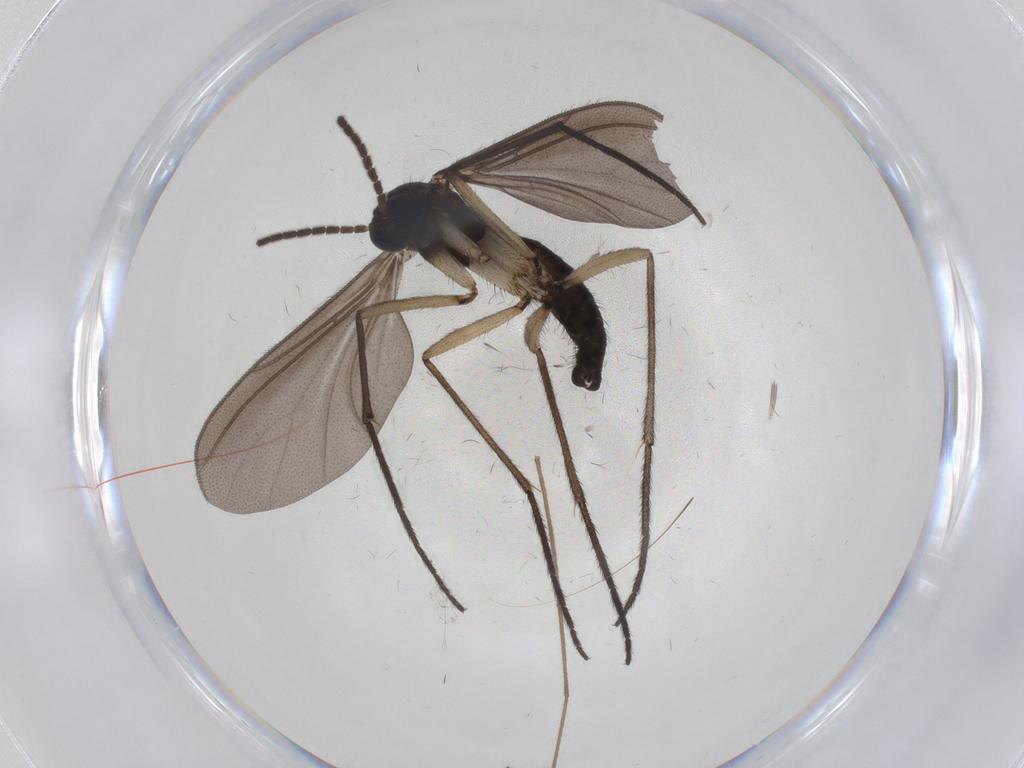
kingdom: Animalia
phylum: Arthropoda
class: Insecta
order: Diptera
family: Chironomidae
